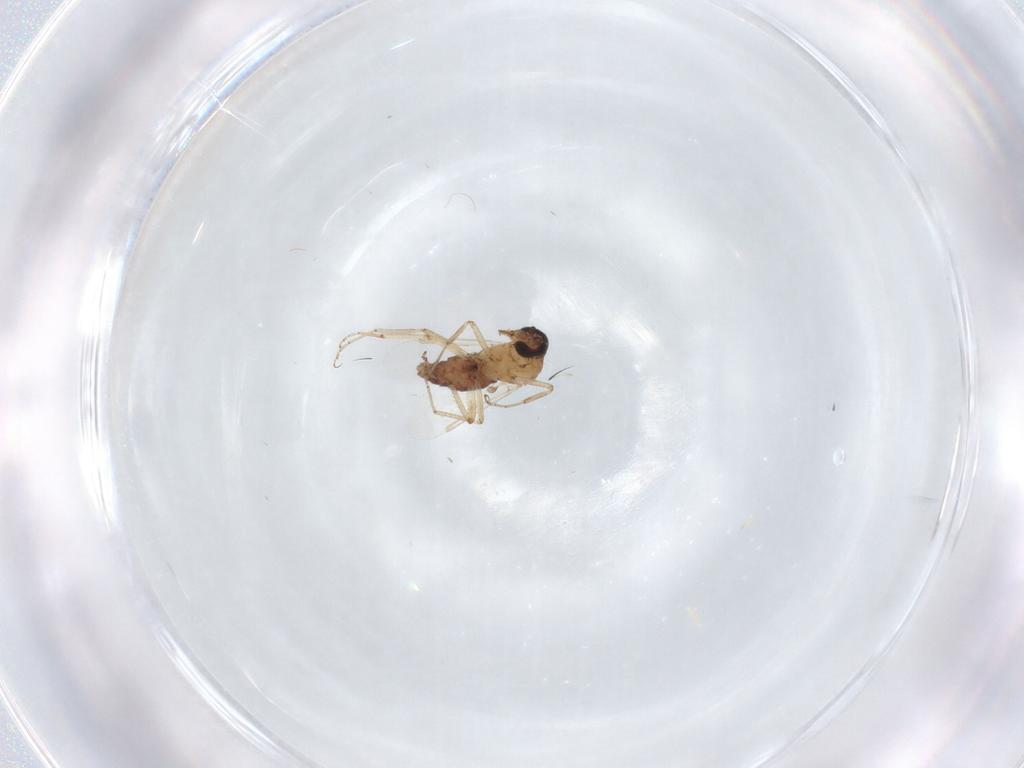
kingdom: Animalia
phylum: Arthropoda
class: Insecta
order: Diptera
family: Ceratopogonidae
